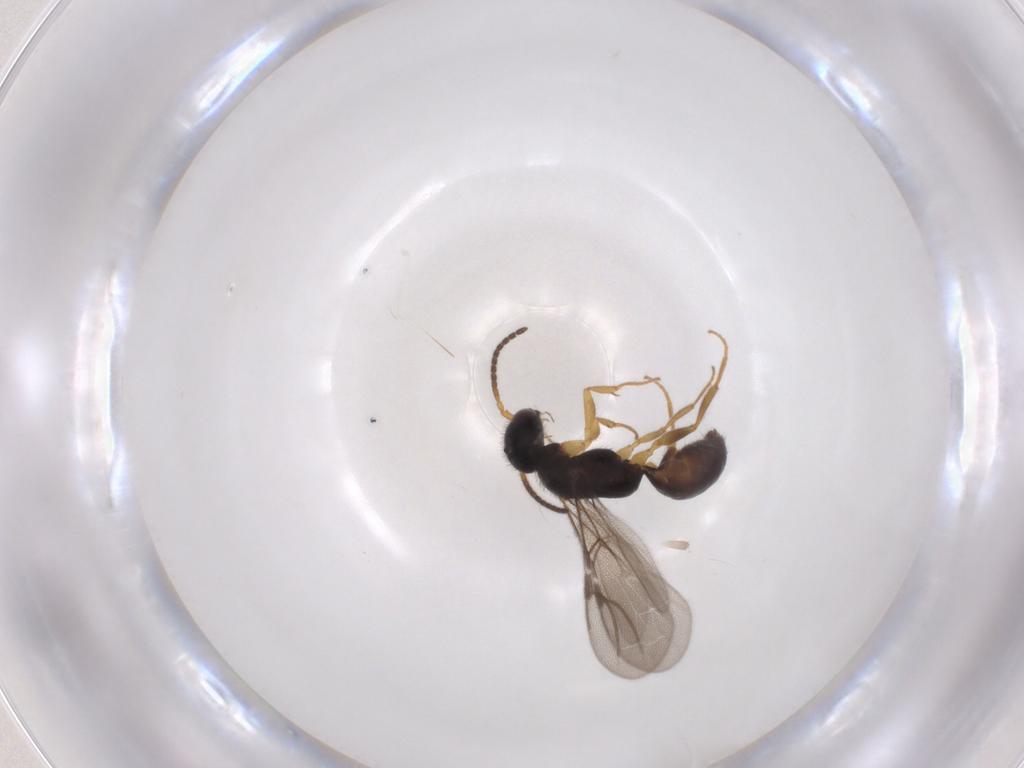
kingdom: Animalia
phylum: Arthropoda
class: Insecta
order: Hymenoptera
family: Bethylidae
